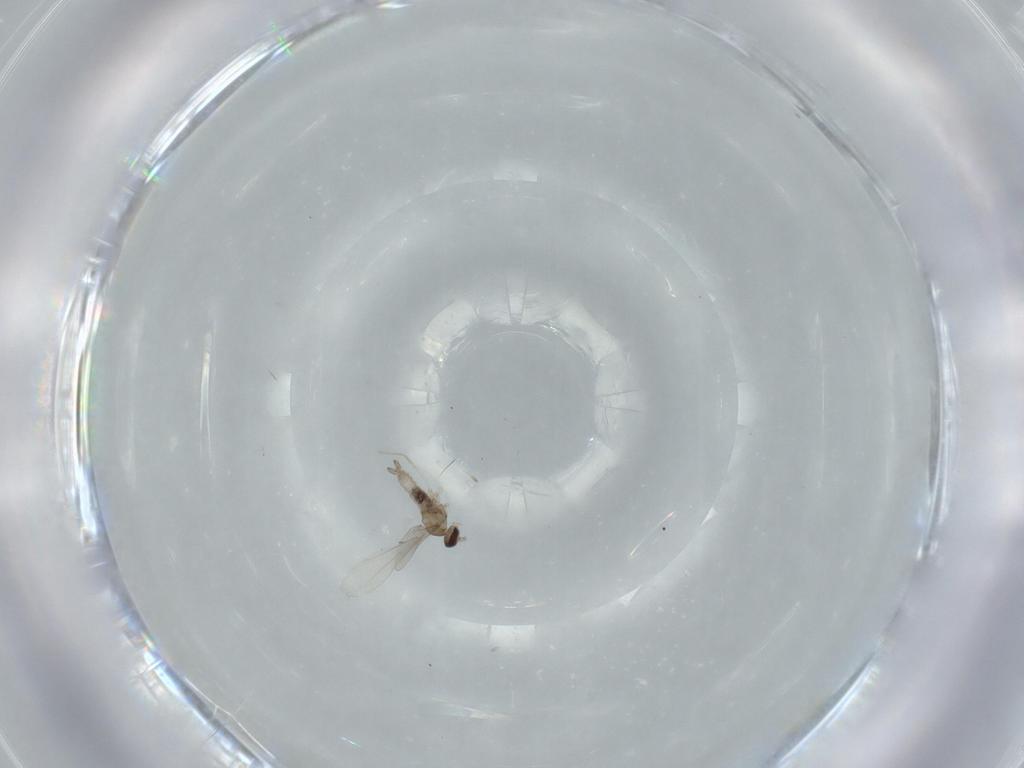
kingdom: Animalia
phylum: Arthropoda
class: Insecta
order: Diptera
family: Cecidomyiidae
